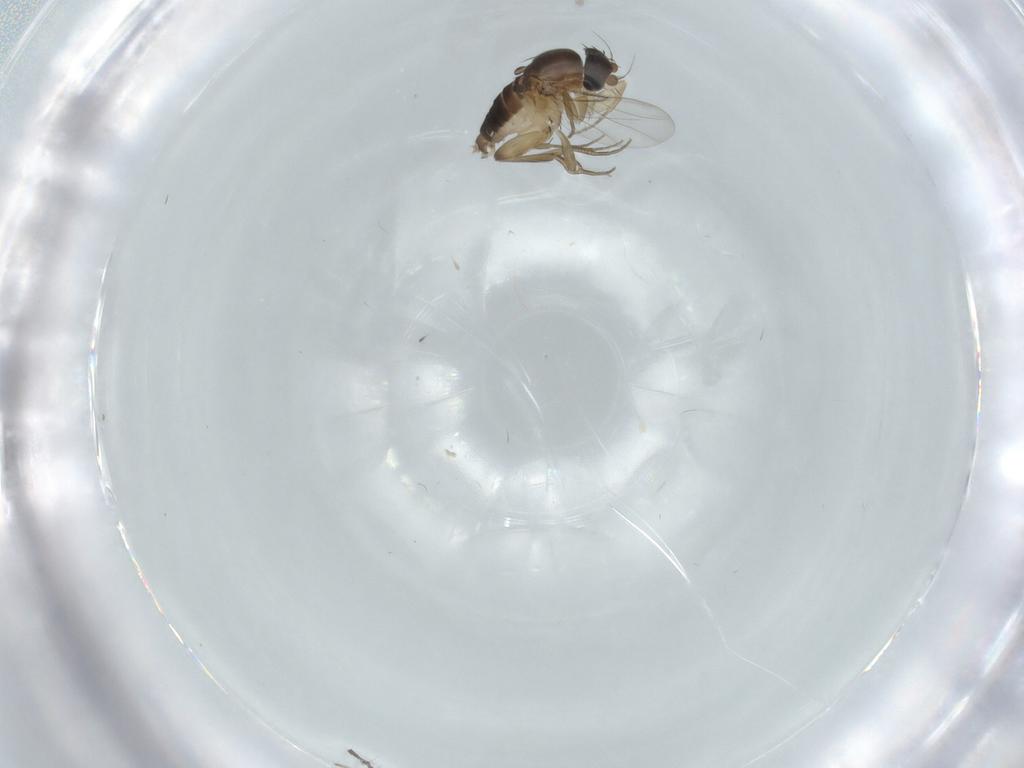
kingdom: Animalia
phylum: Arthropoda
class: Insecta
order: Diptera
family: Phoridae
